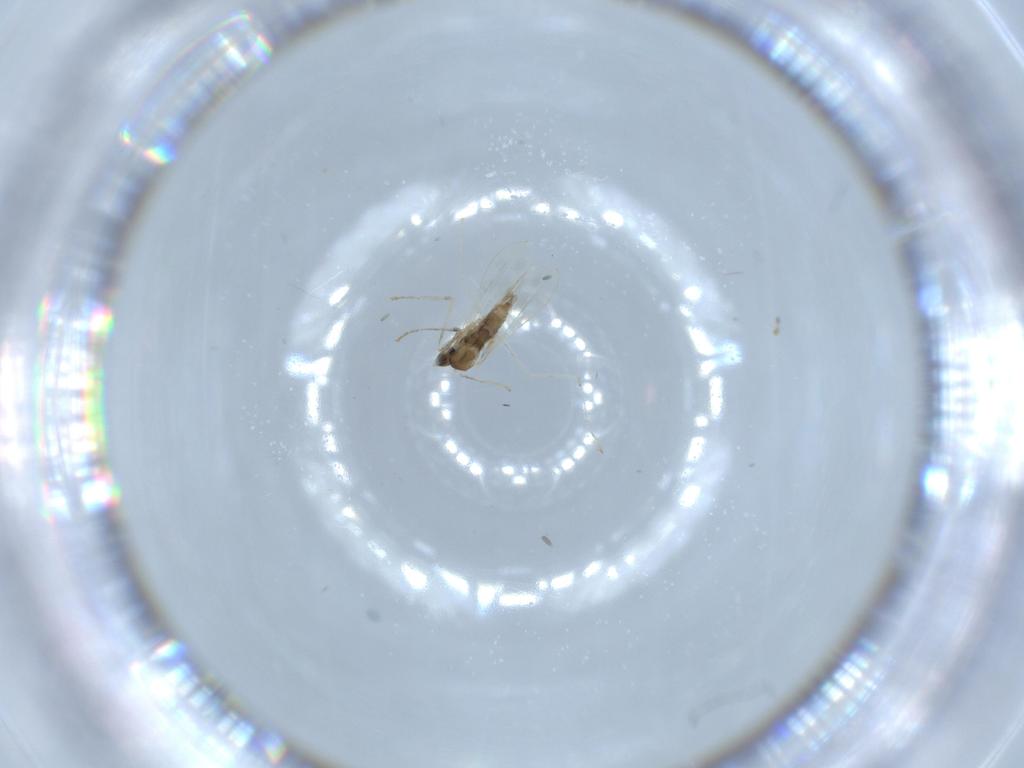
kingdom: Animalia
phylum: Arthropoda
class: Insecta
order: Diptera
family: Cecidomyiidae
